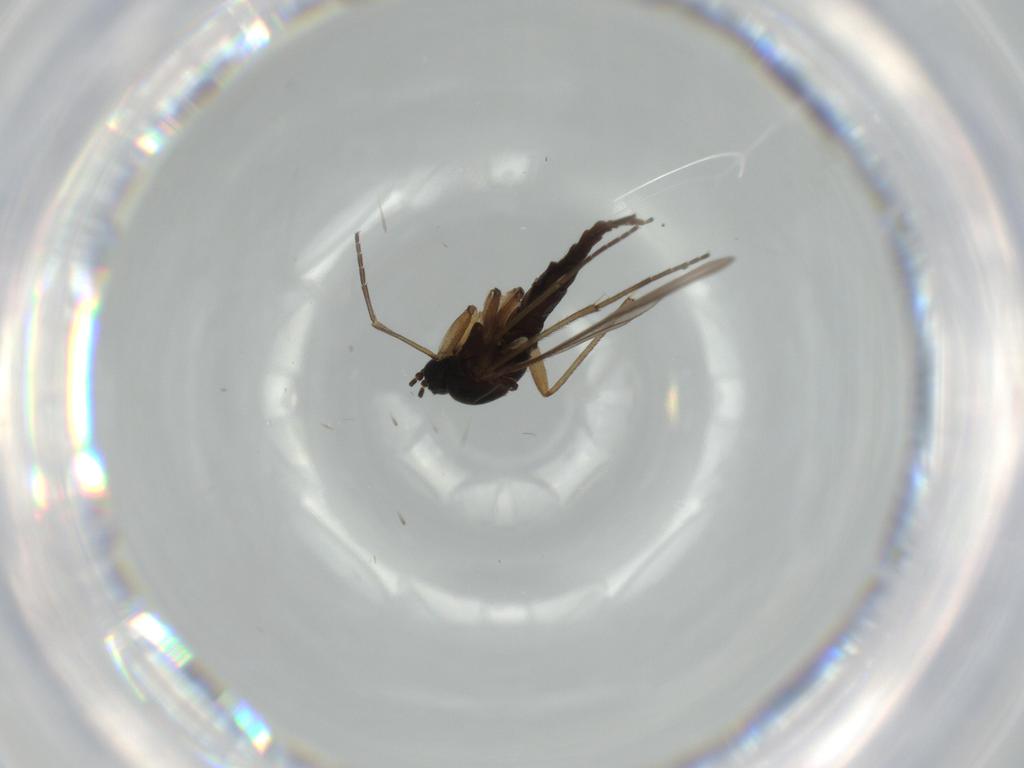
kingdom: Animalia
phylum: Arthropoda
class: Insecta
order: Diptera
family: Sciaridae
